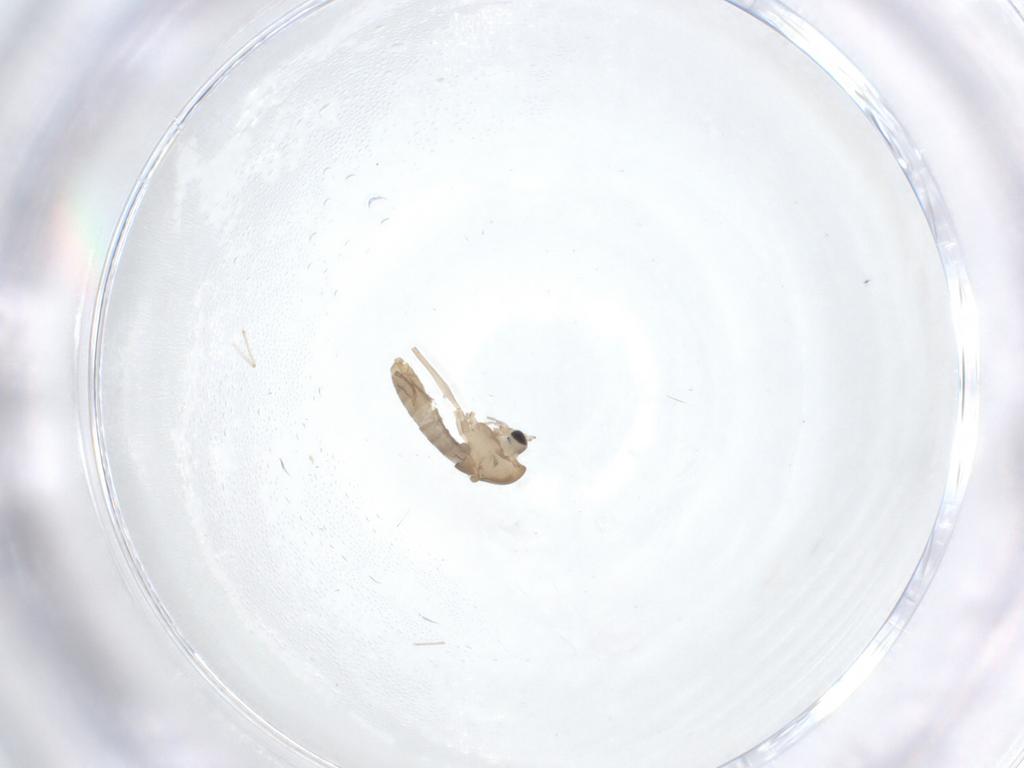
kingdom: Animalia
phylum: Arthropoda
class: Insecta
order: Diptera
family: Chironomidae
